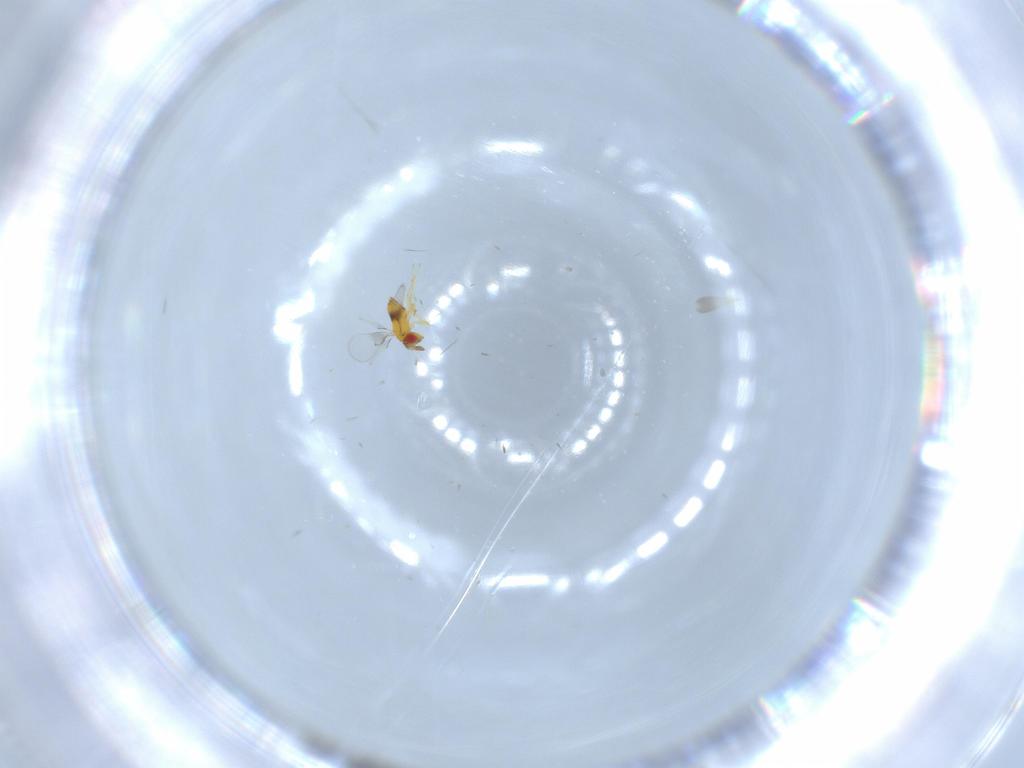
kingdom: Animalia
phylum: Arthropoda
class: Insecta
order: Hymenoptera
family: Trichogrammatidae
